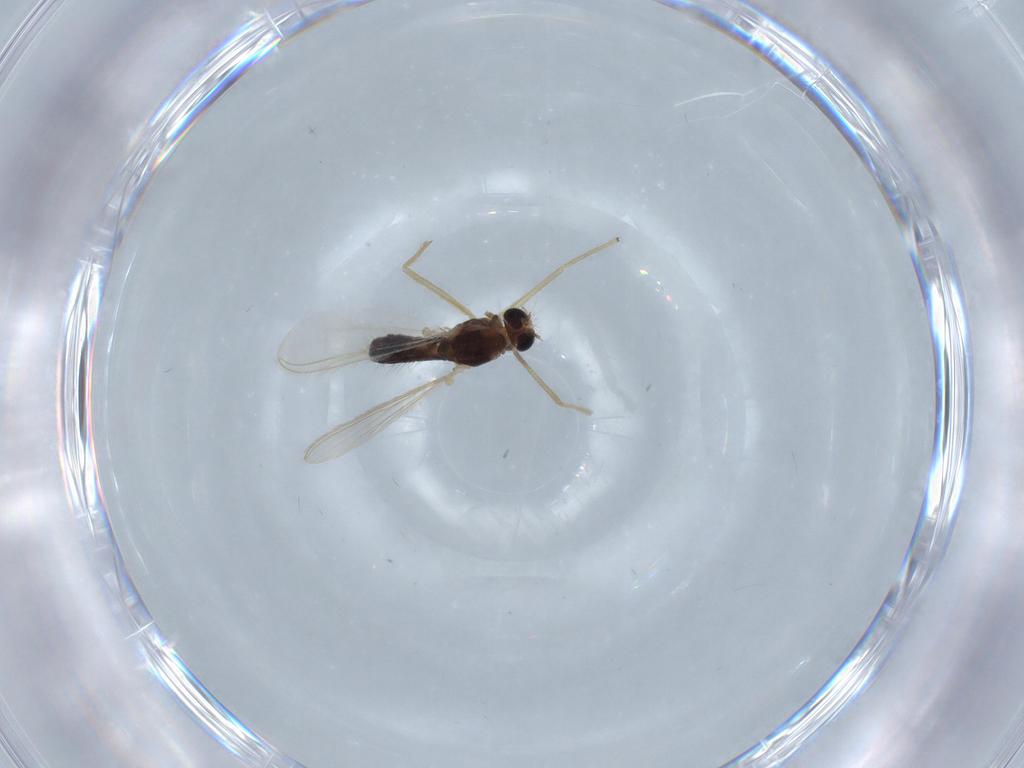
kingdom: Animalia
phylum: Arthropoda
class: Insecta
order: Diptera
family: Chironomidae
